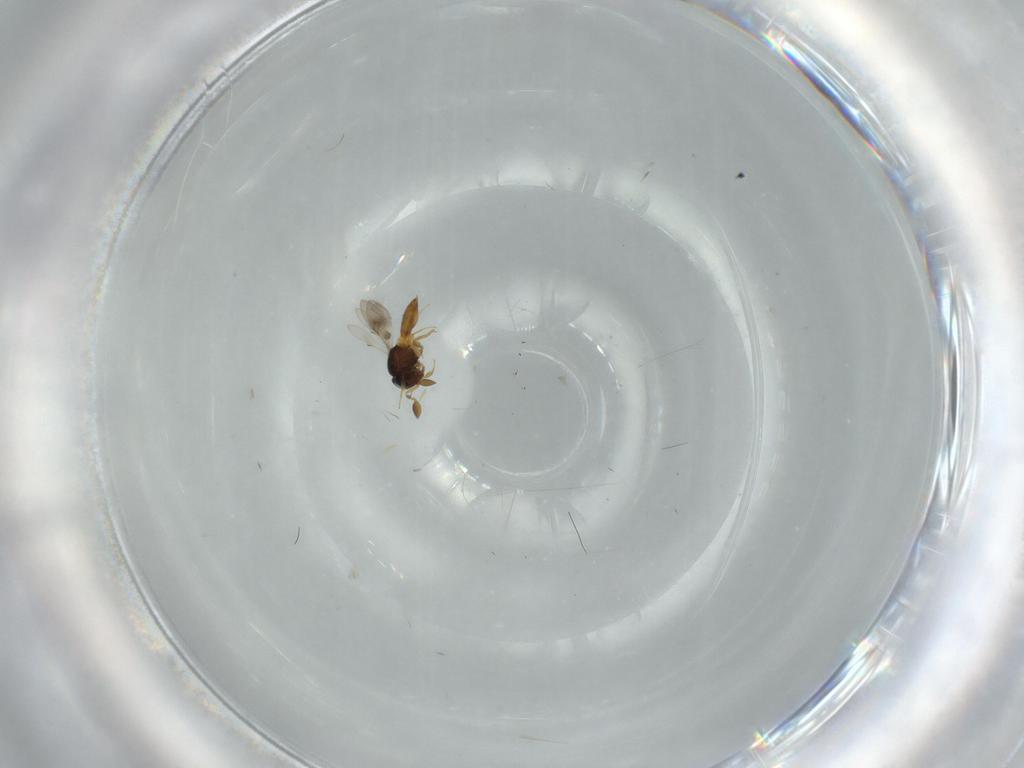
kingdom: Animalia
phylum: Arthropoda
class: Insecta
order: Hymenoptera
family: Scelionidae
